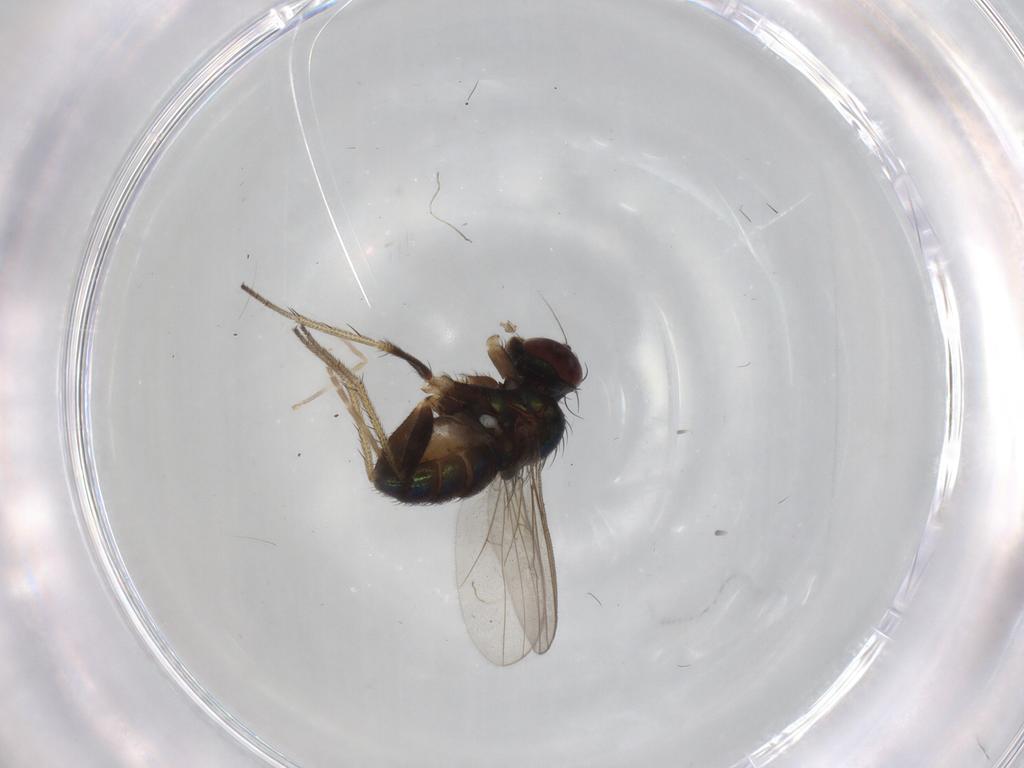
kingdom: Animalia
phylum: Arthropoda
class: Insecta
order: Diptera
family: Chironomidae
